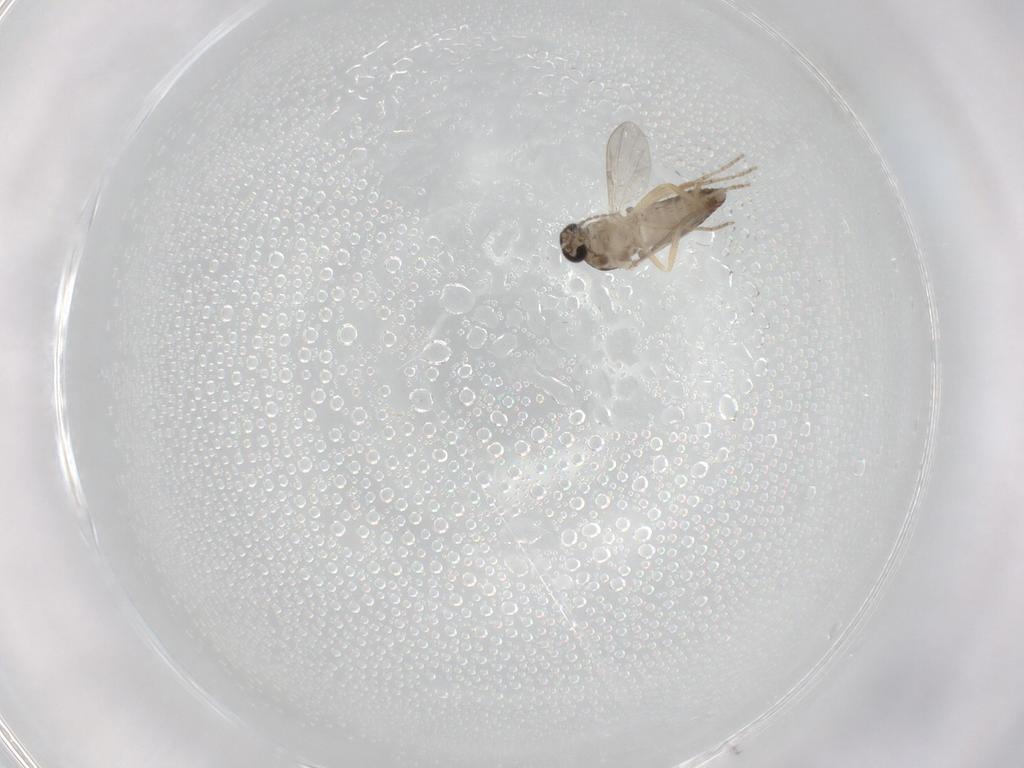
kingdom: Animalia
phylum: Arthropoda
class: Insecta
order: Diptera
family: Ceratopogonidae
